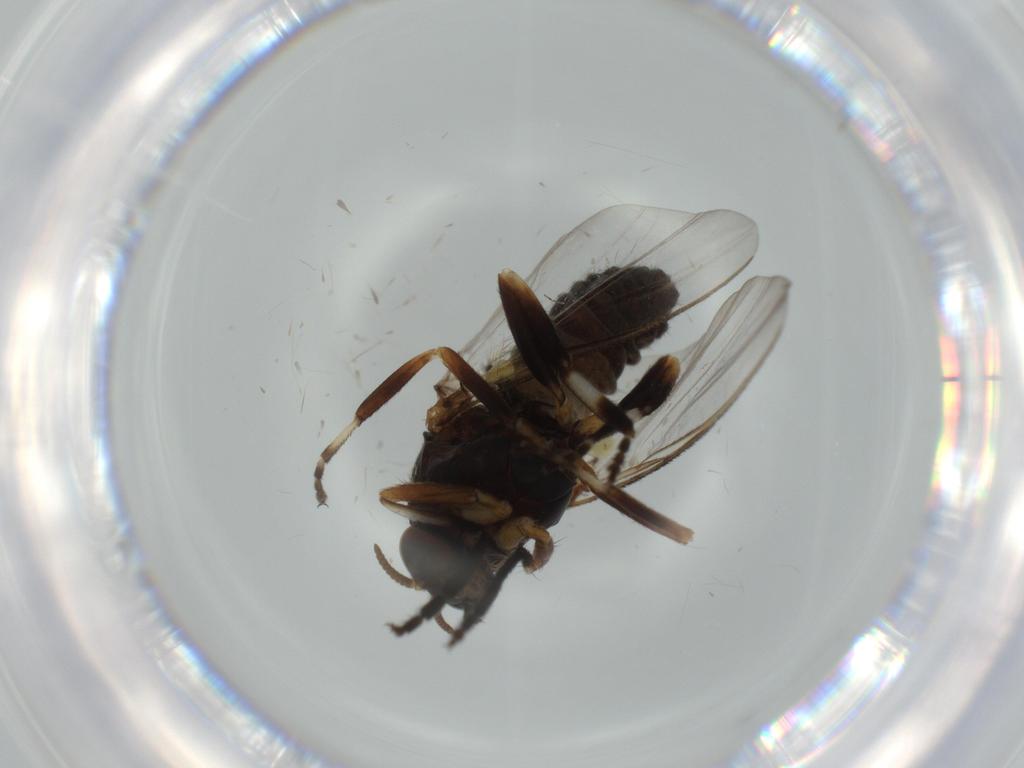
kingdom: Animalia
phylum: Arthropoda
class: Insecta
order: Diptera
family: Cecidomyiidae
